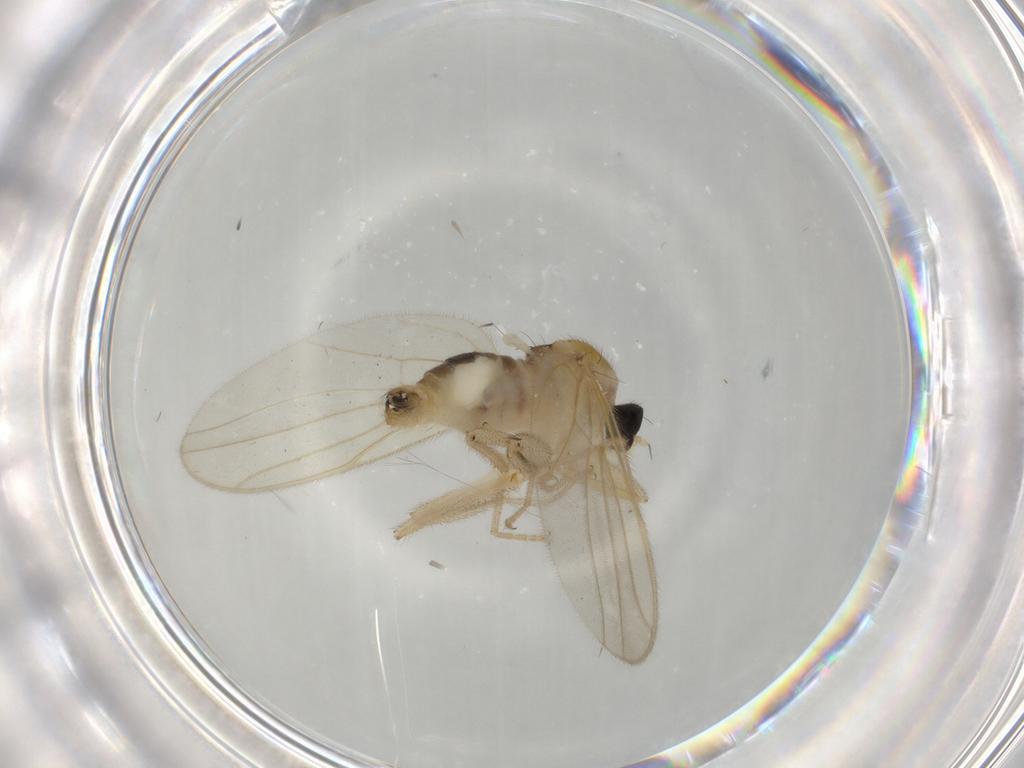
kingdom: Animalia
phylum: Arthropoda
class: Insecta
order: Diptera
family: Hybotidae
